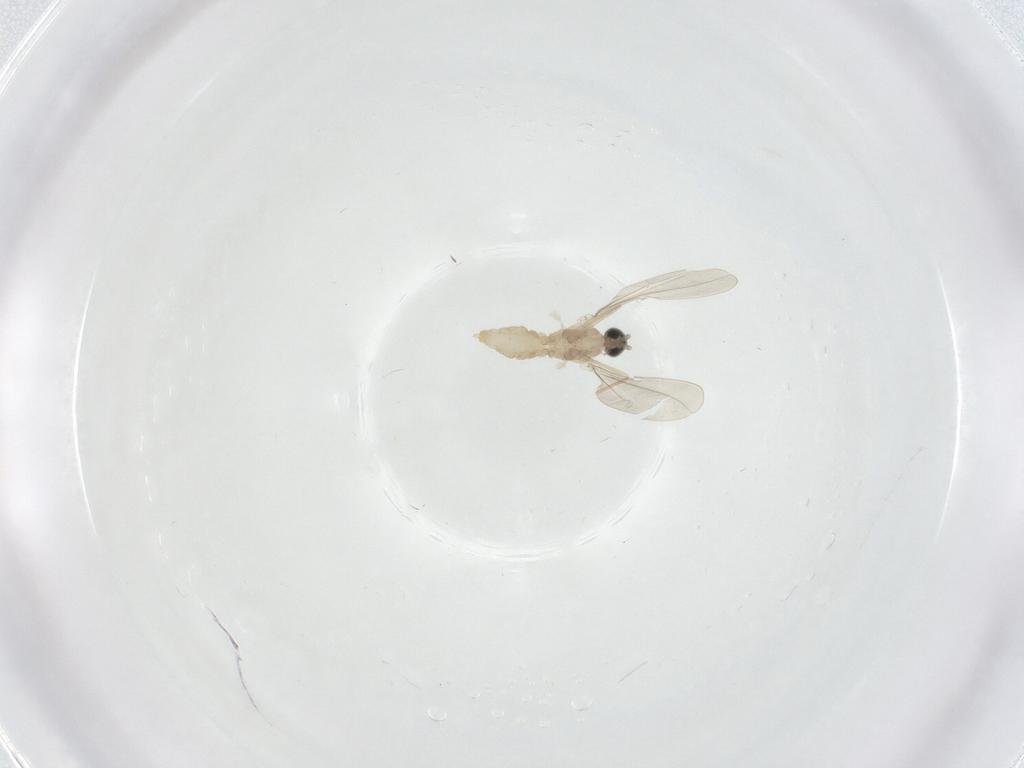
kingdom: Animalia
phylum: Arthropoda
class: Insecta
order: Diptera
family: Cecidomyiidae
